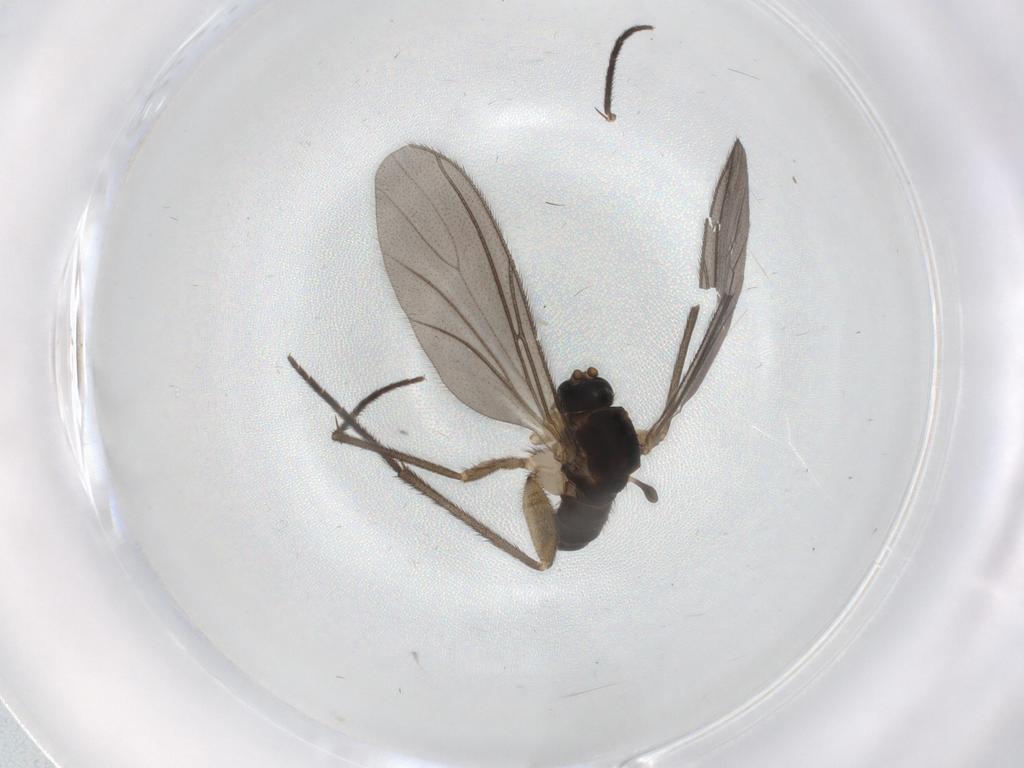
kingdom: Animalia
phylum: Arthropoda
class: Insecta
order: Diptera
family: Sciaridae
